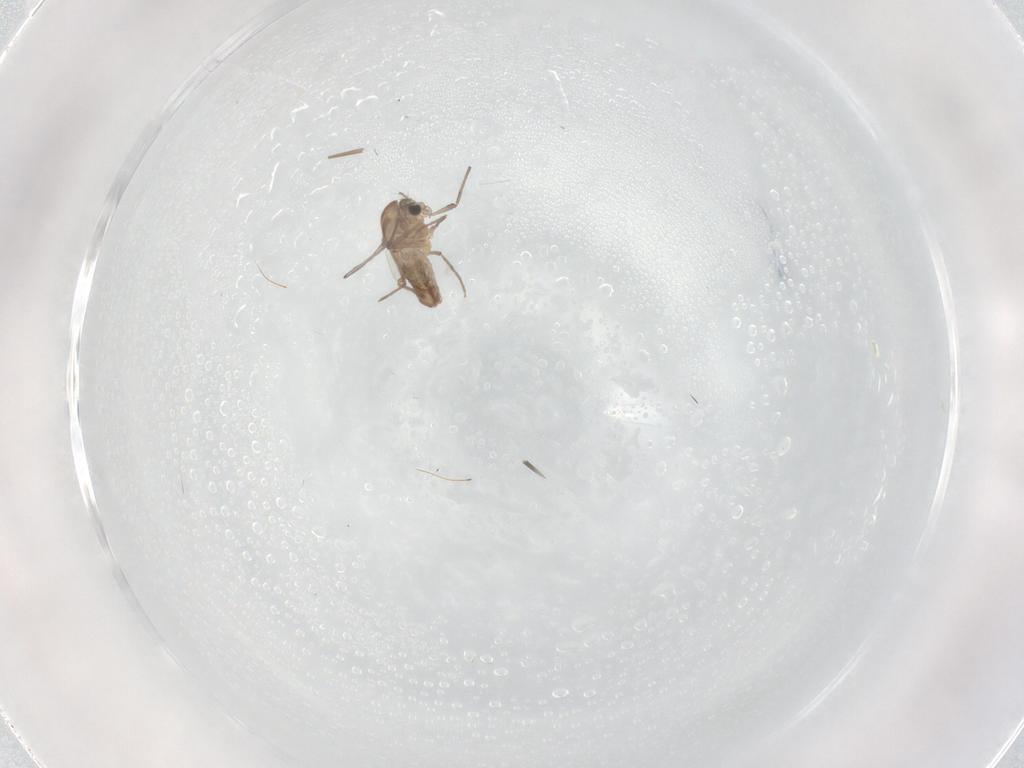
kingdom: Animalia
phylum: Arthropoda
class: Insecta
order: Diptera
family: Chironomidae
